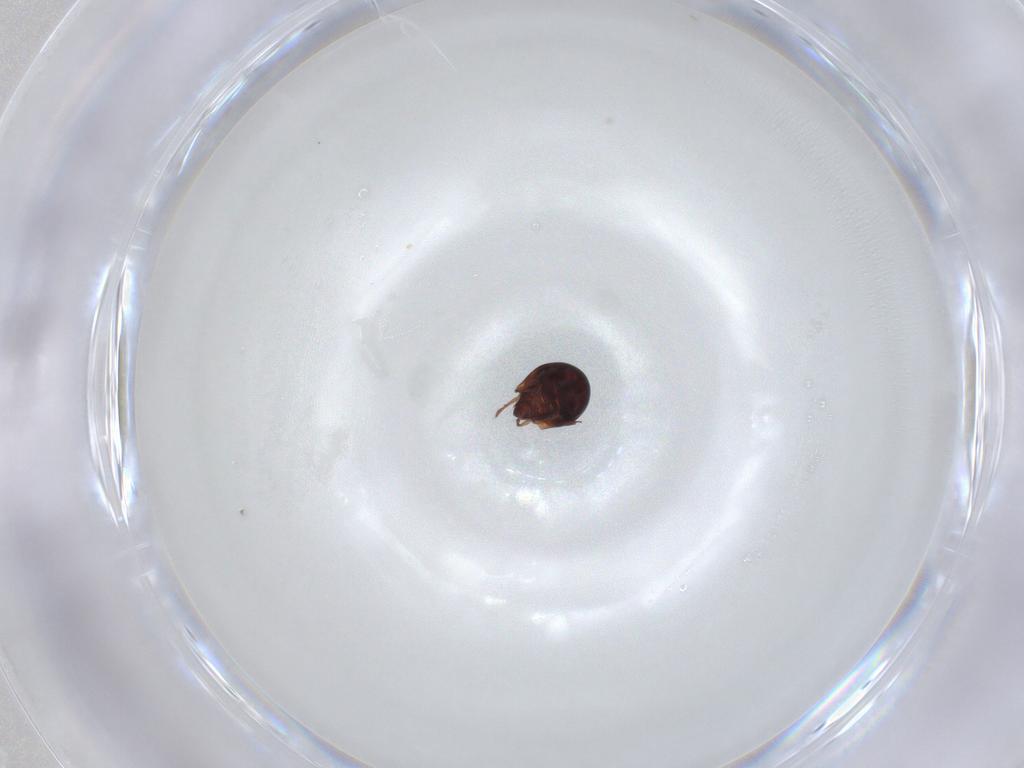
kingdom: Animalia
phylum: Arthropoda
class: Arachnida
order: Sarcoptiformes
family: Humerobatidae
